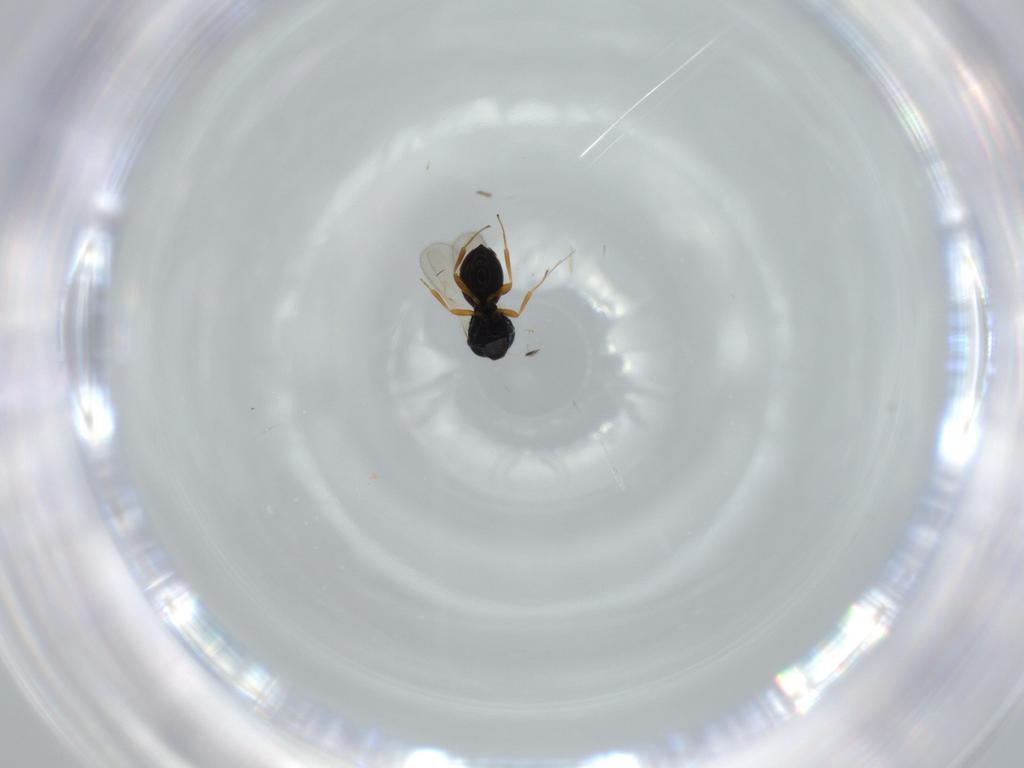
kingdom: Animalia
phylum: Arthropoda
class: Insecta
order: Hymenoptera
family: Scelionidae
